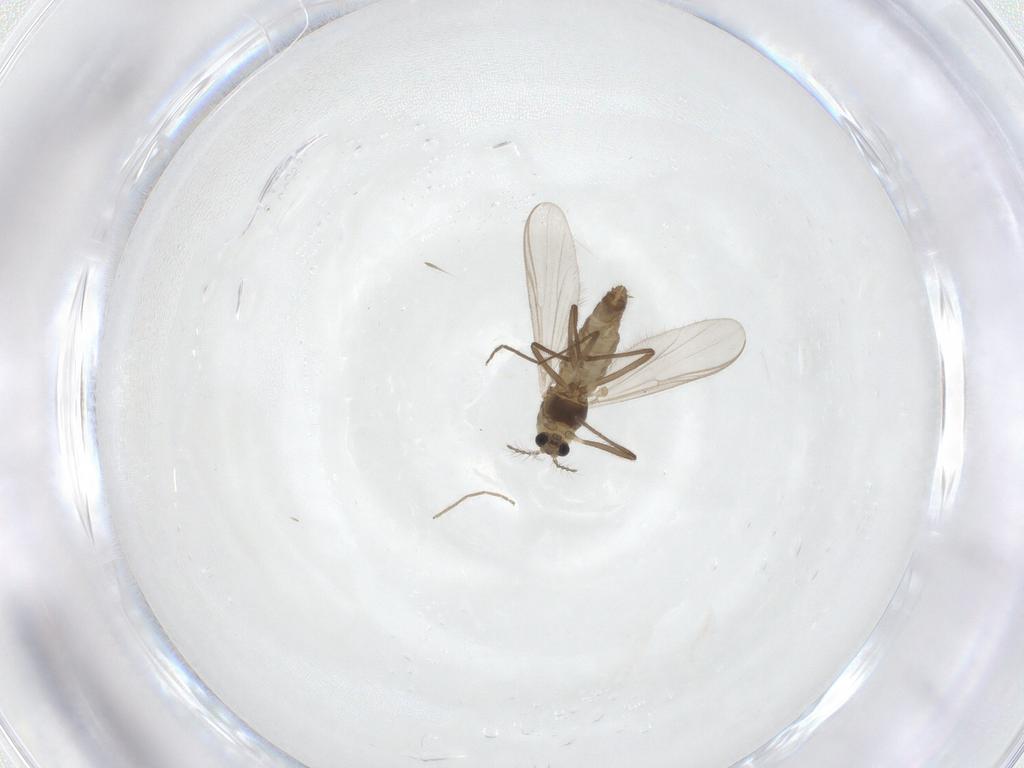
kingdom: Animalia
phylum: Arthropoda
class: Insecta
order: Diptera
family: Chironomidae
